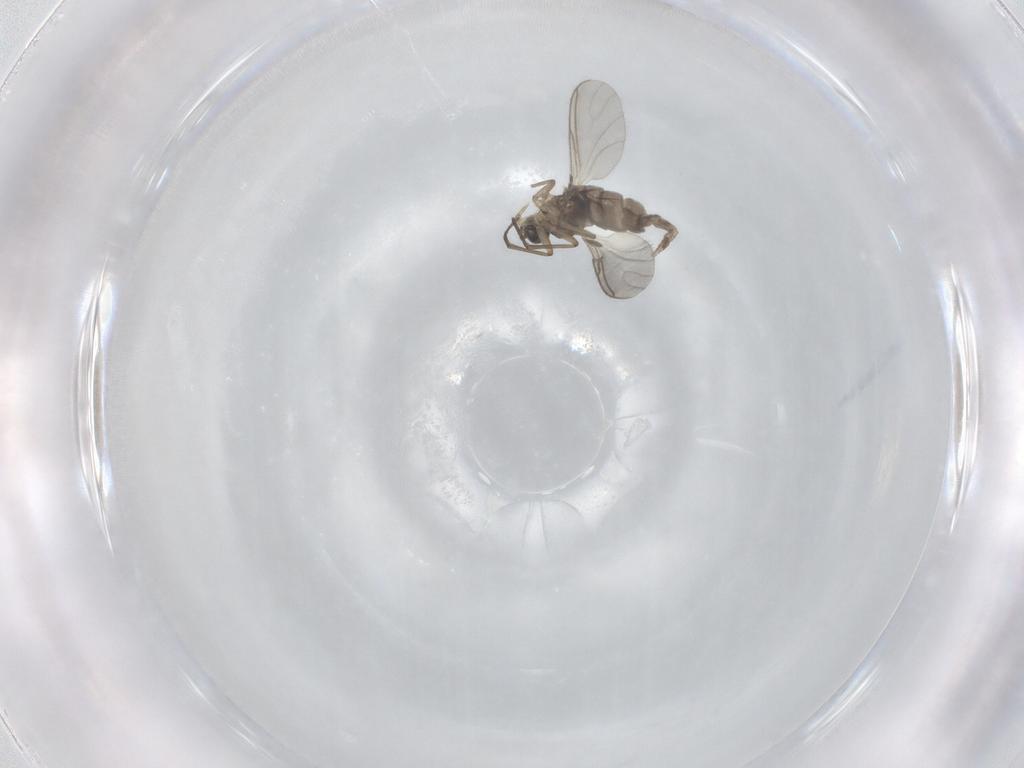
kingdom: Animalia
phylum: Arthropoda
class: Insecta
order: Diptera
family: Sciaridae
